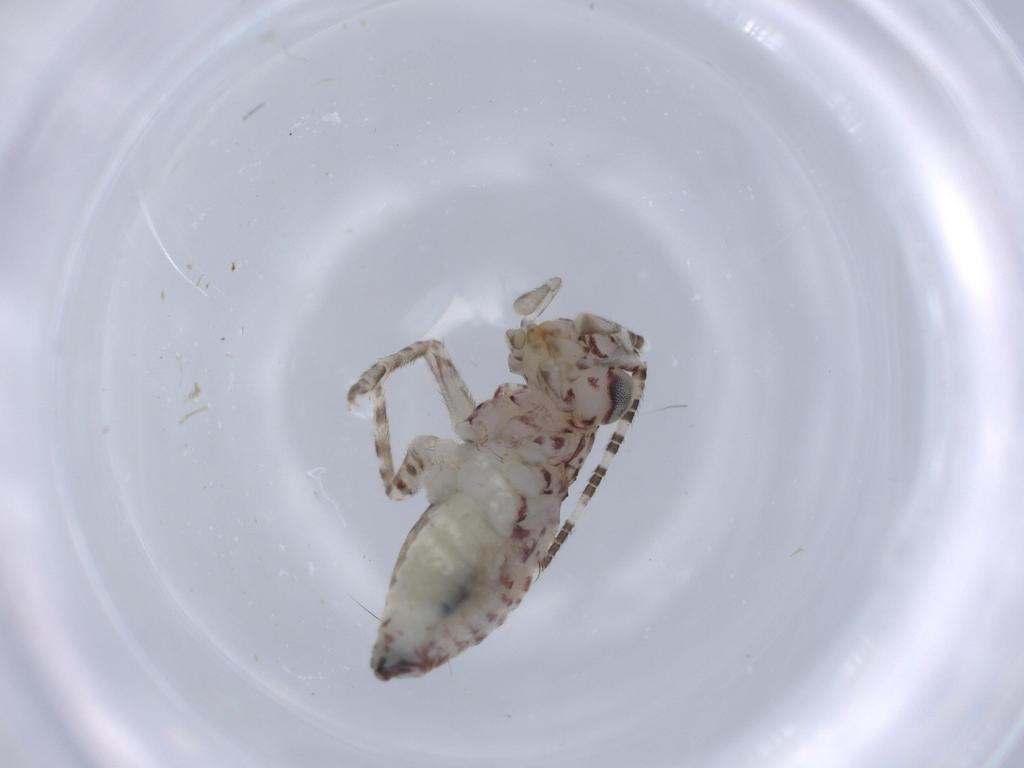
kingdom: Animalia
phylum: Arthropoda
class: Insecta
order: Orthoptera
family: Trigonidiidae
